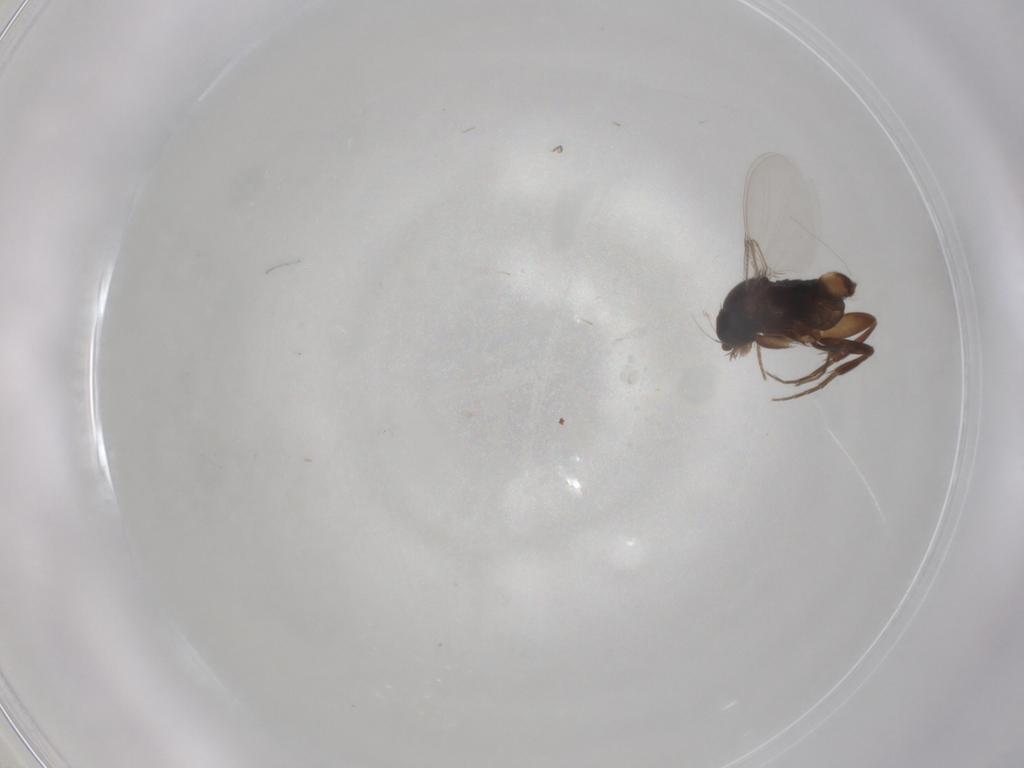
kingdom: Animalia
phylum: Arthropoda
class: Insecta
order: Diptera
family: Phoridae
